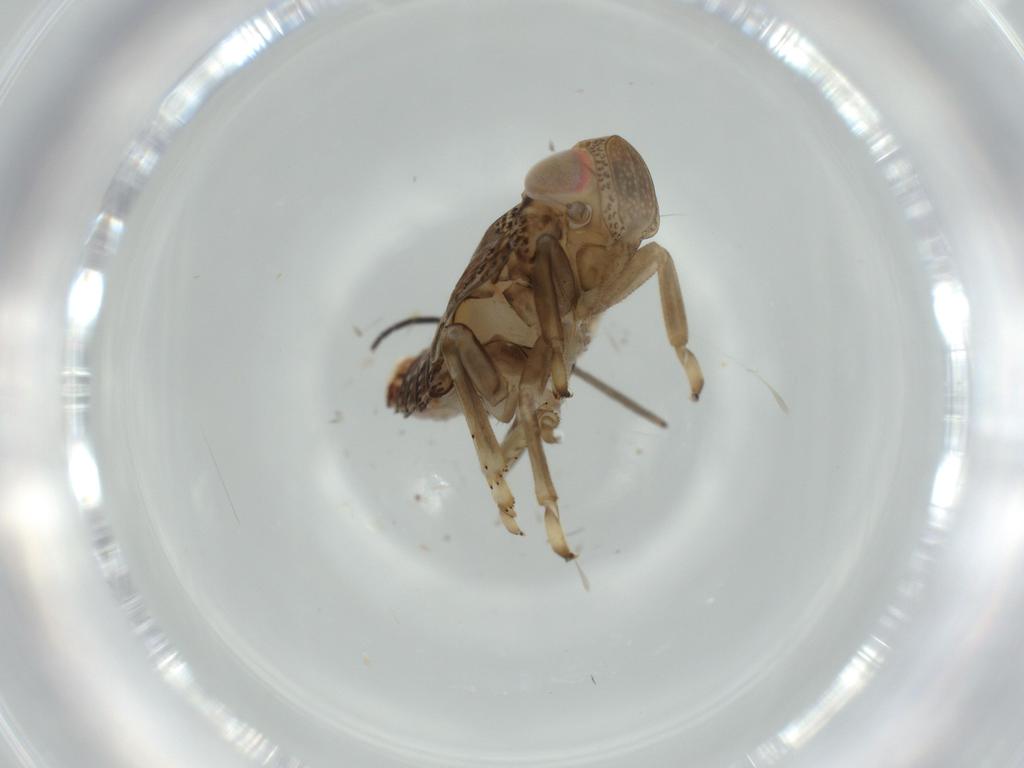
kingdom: Animalia
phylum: Arthropoda
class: Insecta
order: Hemiptera
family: Issidae
